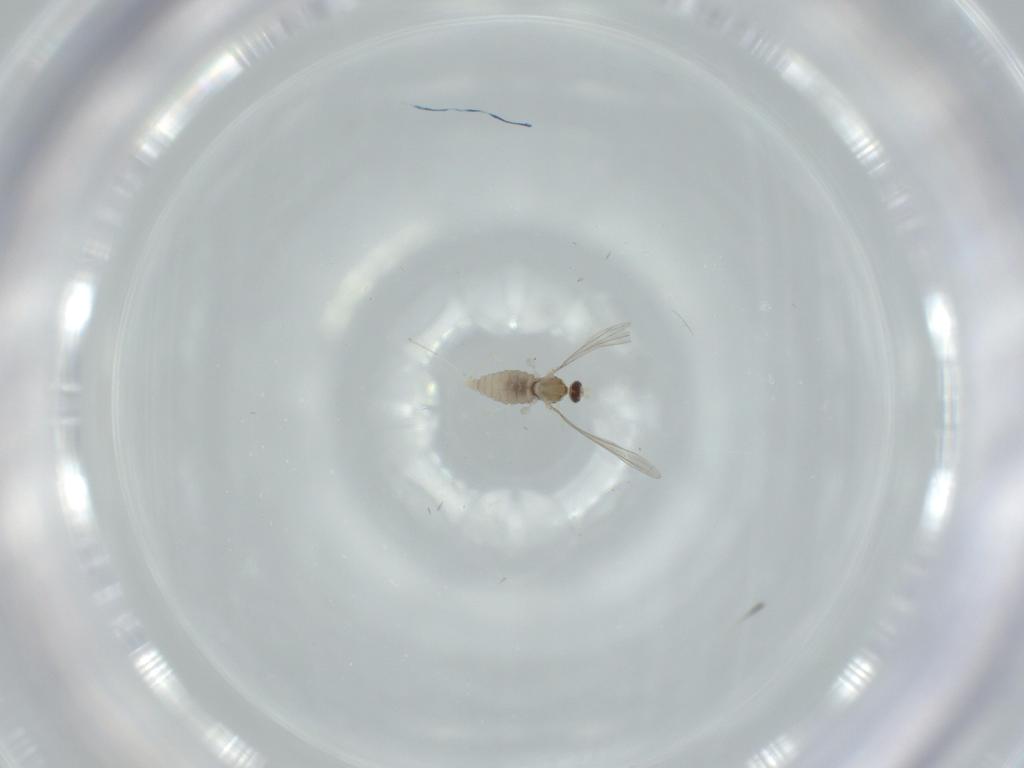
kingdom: Animalia
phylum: Arthropoda
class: Insecta
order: Diptera
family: Cecidomyiidae
